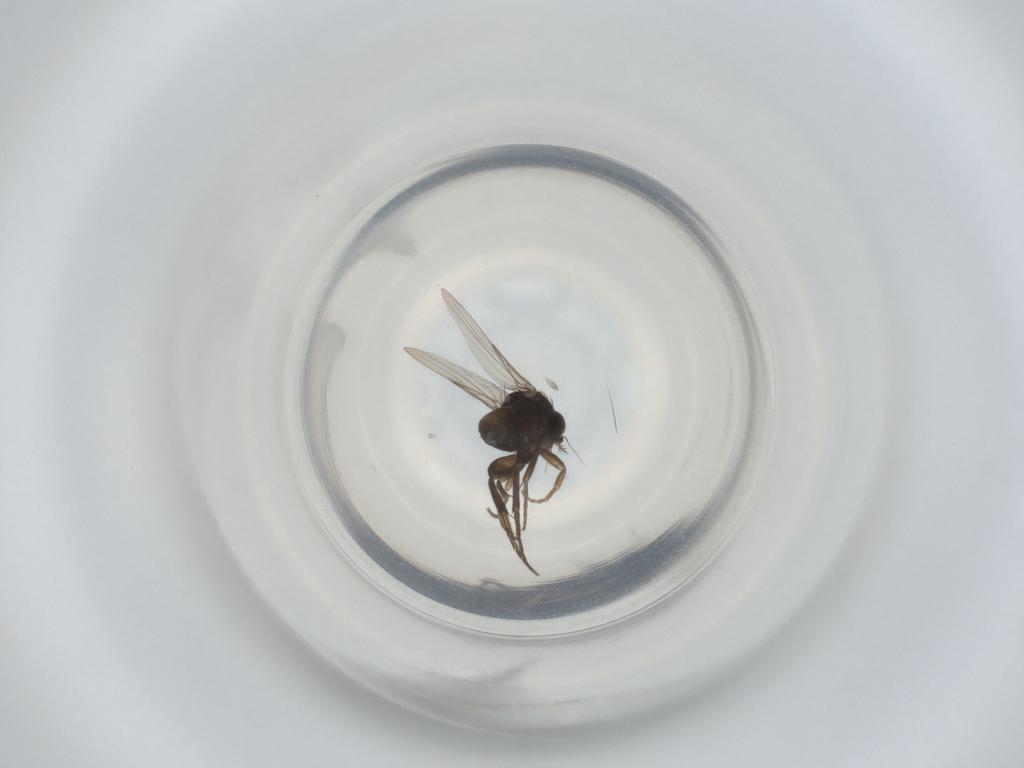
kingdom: Animalia
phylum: Arthropoda
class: Insecta
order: Diptera
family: Phoridae
